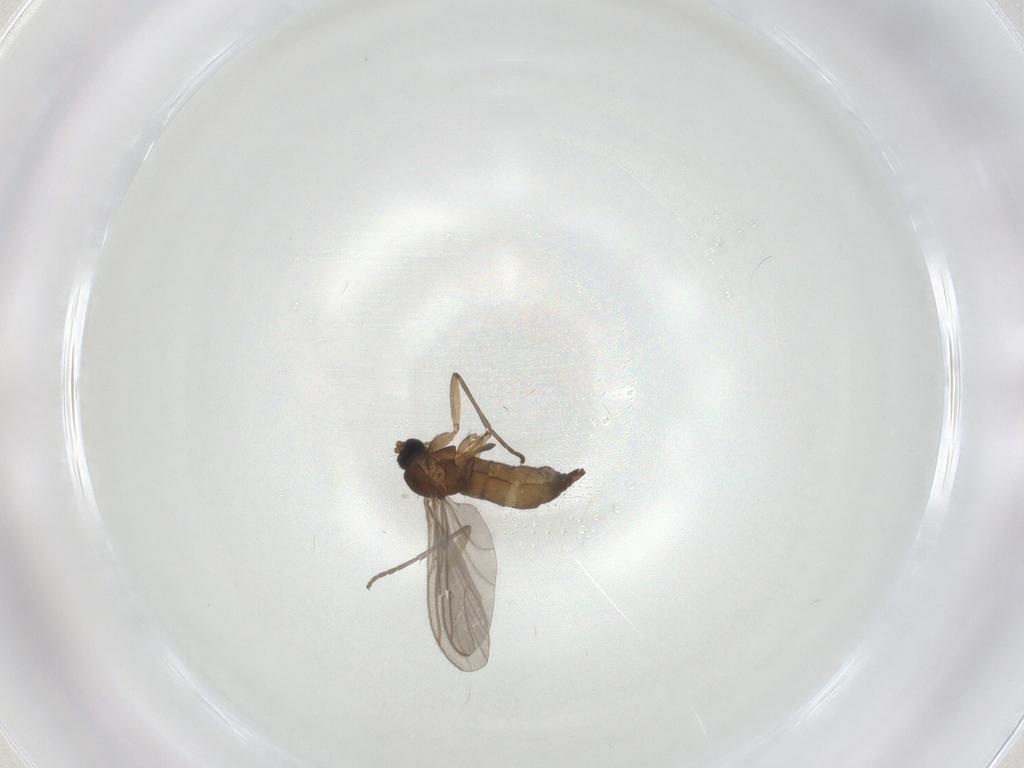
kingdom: Animalia
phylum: Arthropoda
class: Insecta
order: Diptera
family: Sciaridae
